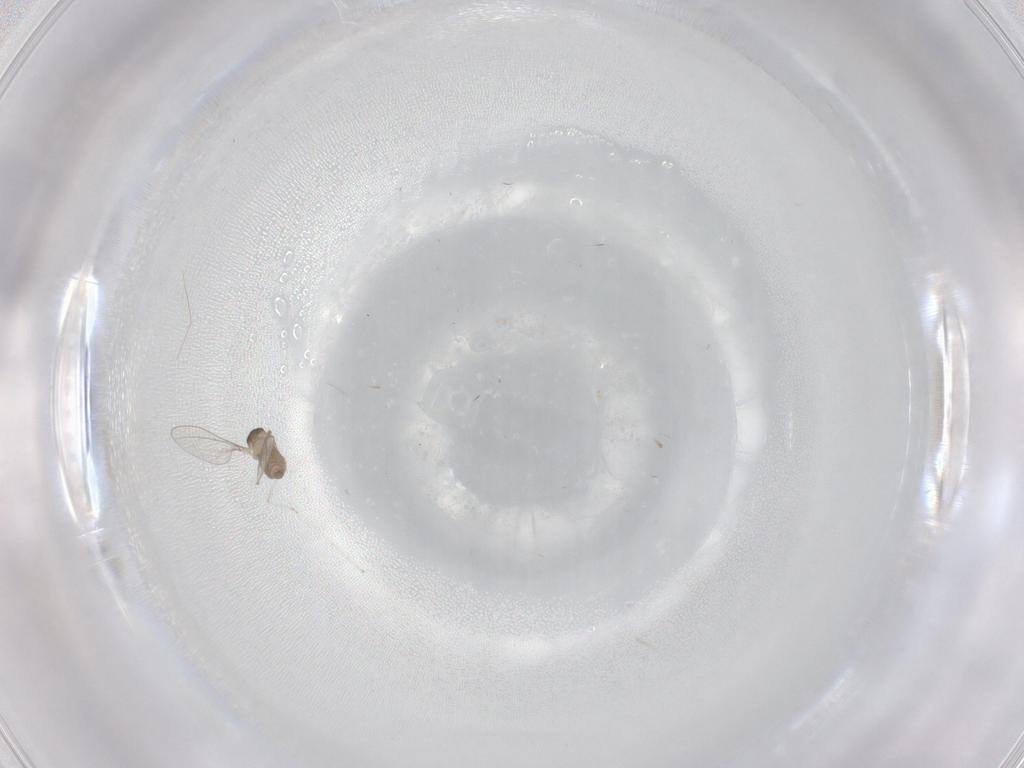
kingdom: Animalia
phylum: Arthropoda
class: Insecta
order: Diptera
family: Cecidomyiidae
